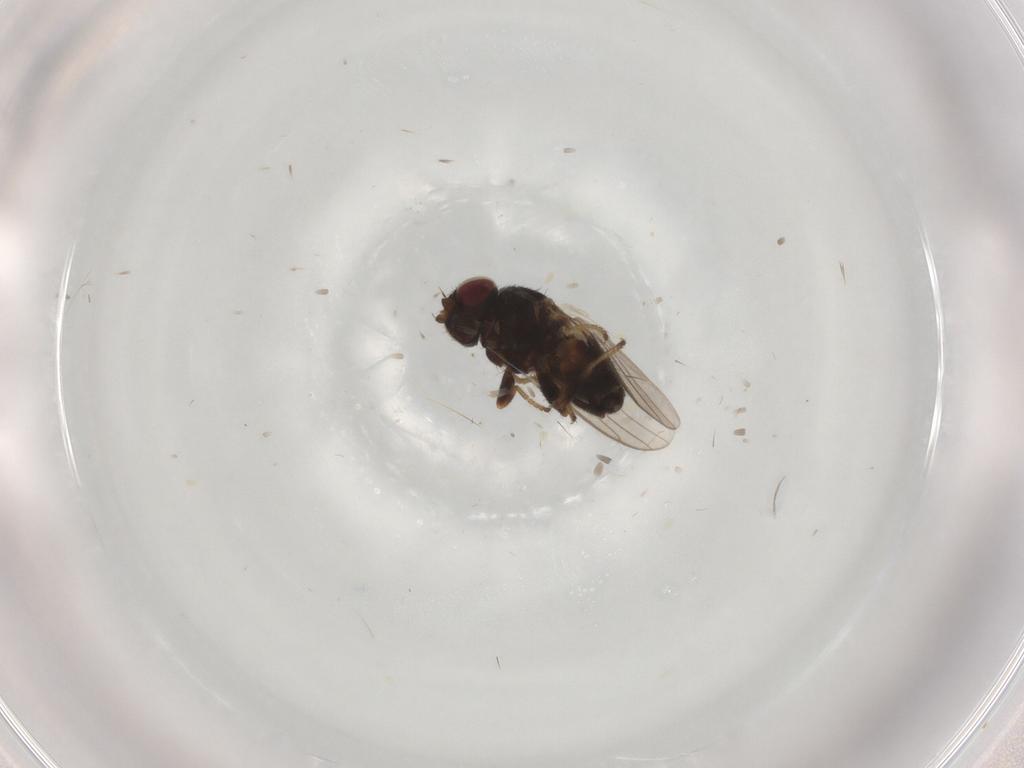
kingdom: Animalia
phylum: Arthropoda
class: Insecta
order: Diptera
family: Chloropidae
